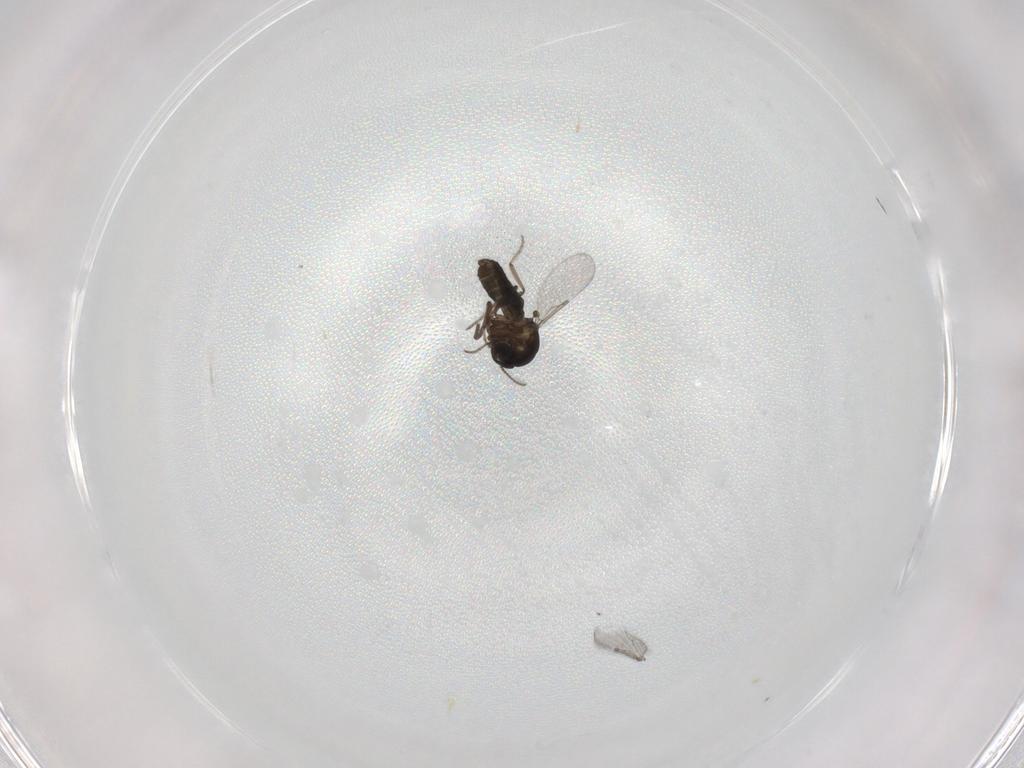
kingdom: Animalia
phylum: Arthropoda
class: Insecta
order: Diptera
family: Ceratopogonidae
